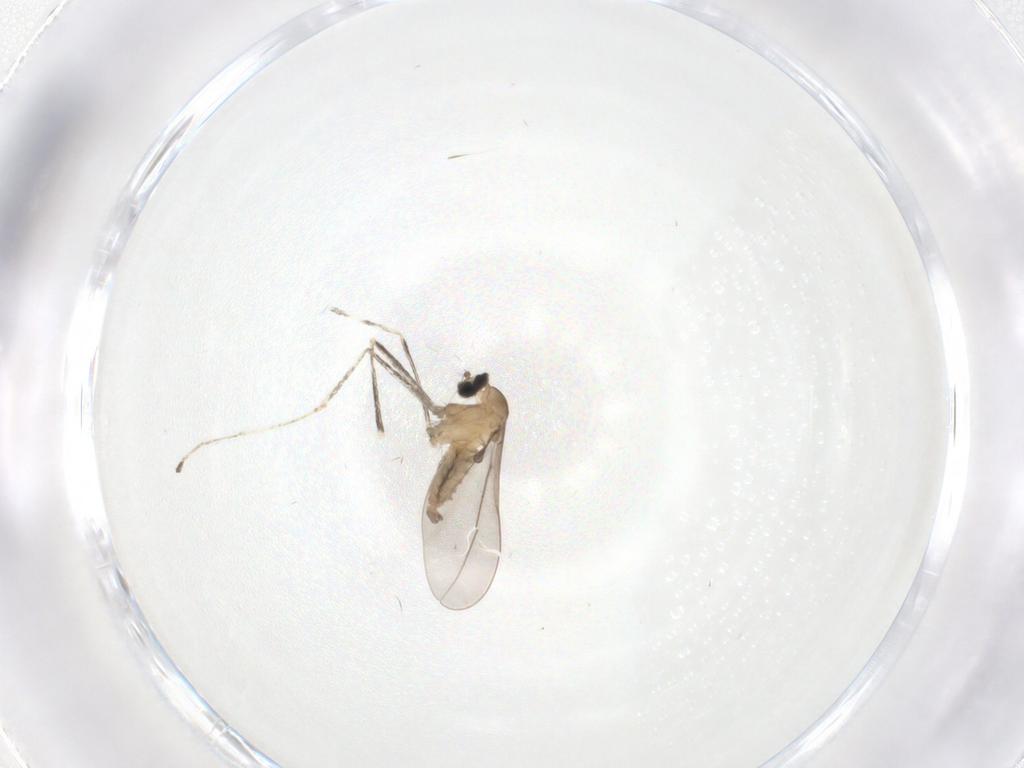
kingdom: Animalia
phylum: Arthropoda
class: Insecta
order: Diptera
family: Cecidomyiidae
